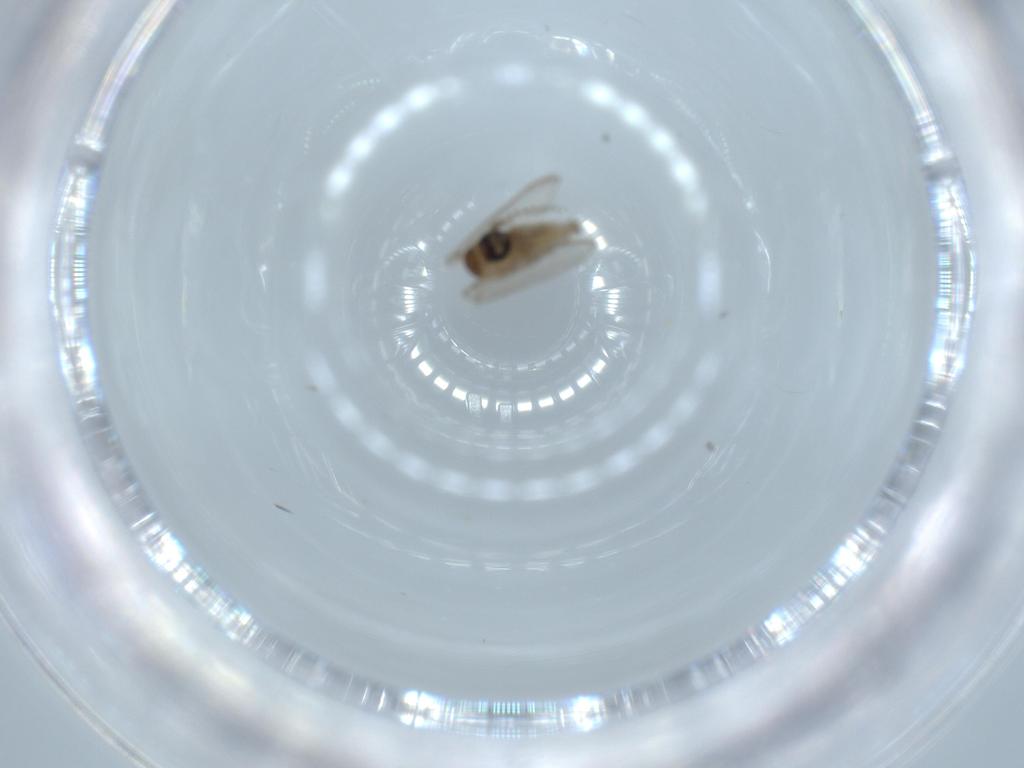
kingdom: Animalia
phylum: Arthropoda
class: Insecta
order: Diptera
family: Psychodidae
